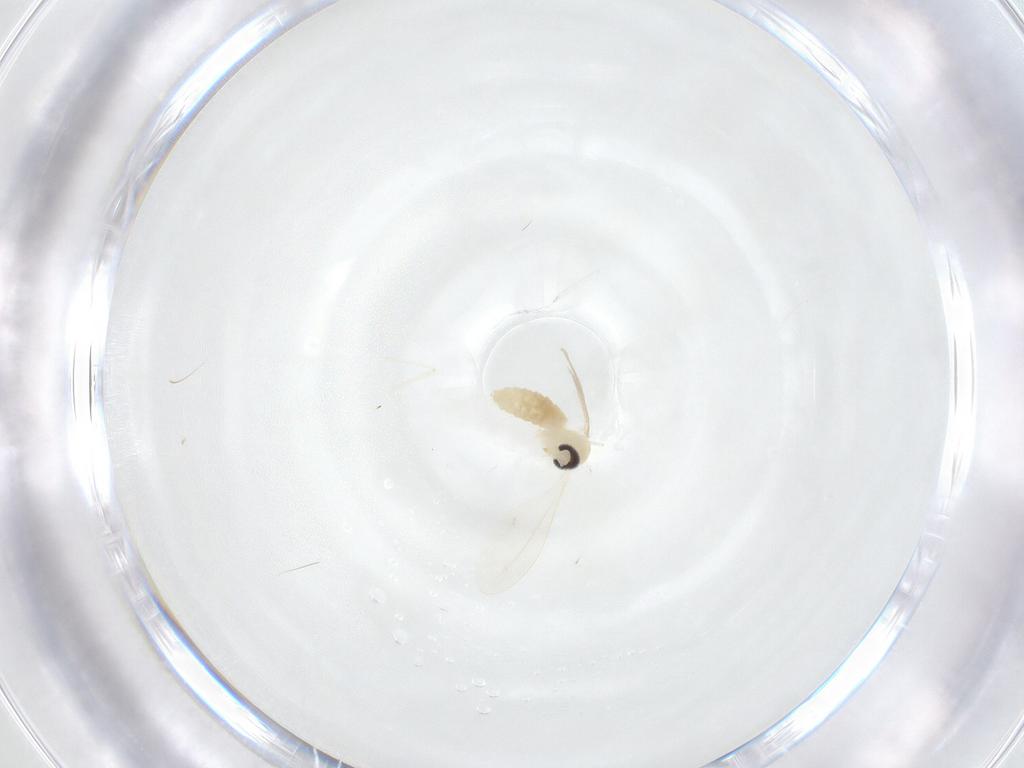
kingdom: Animalia
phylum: Arthropoda
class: Insecta
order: Diptera
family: Cecidomyiidae
